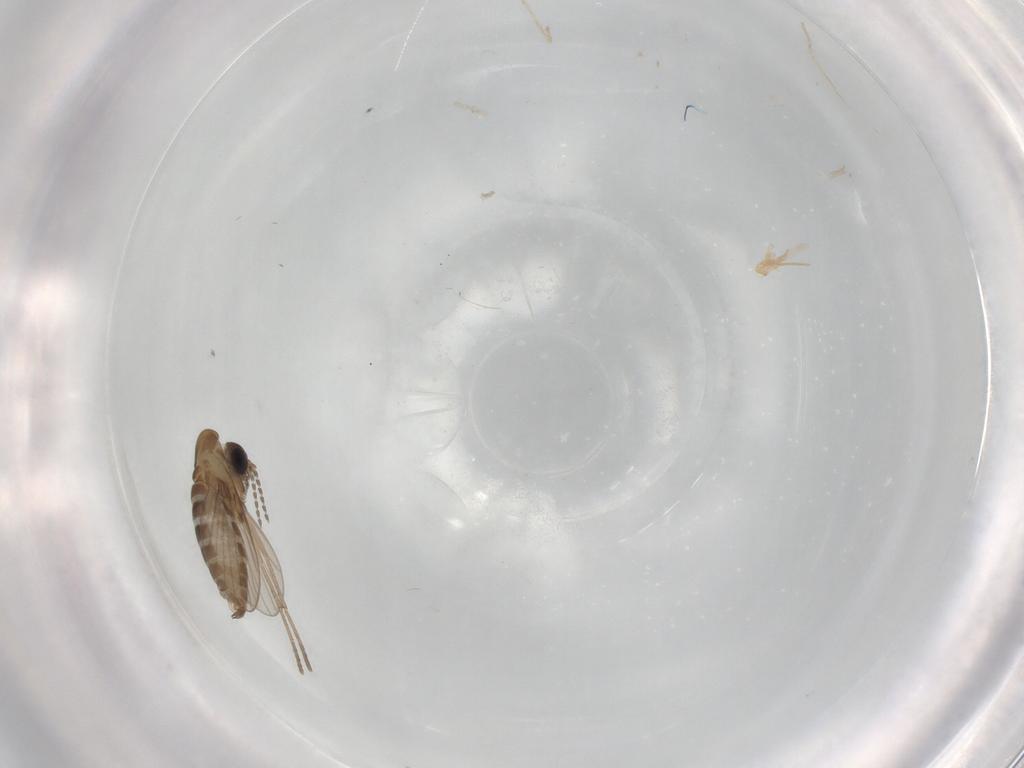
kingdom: Animalia
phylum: Arthropoda
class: Insecta
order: Diptera
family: Psychodidae
